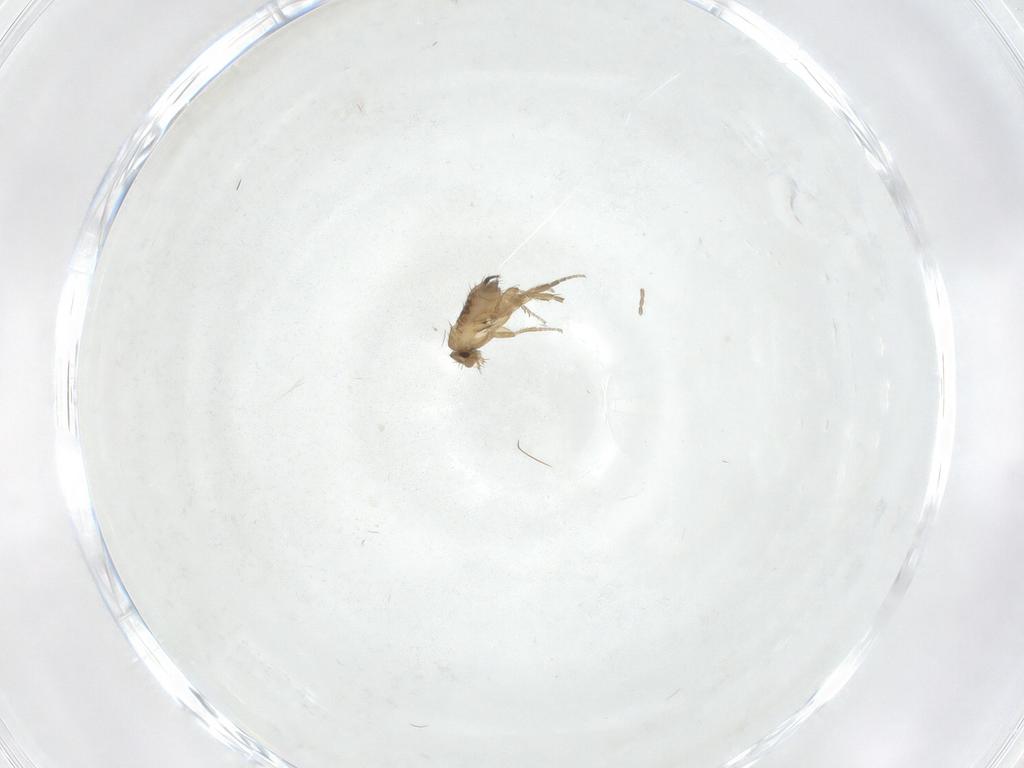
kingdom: Animalia
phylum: Arthropoda
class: Insecta
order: Diptera
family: Phoridae
